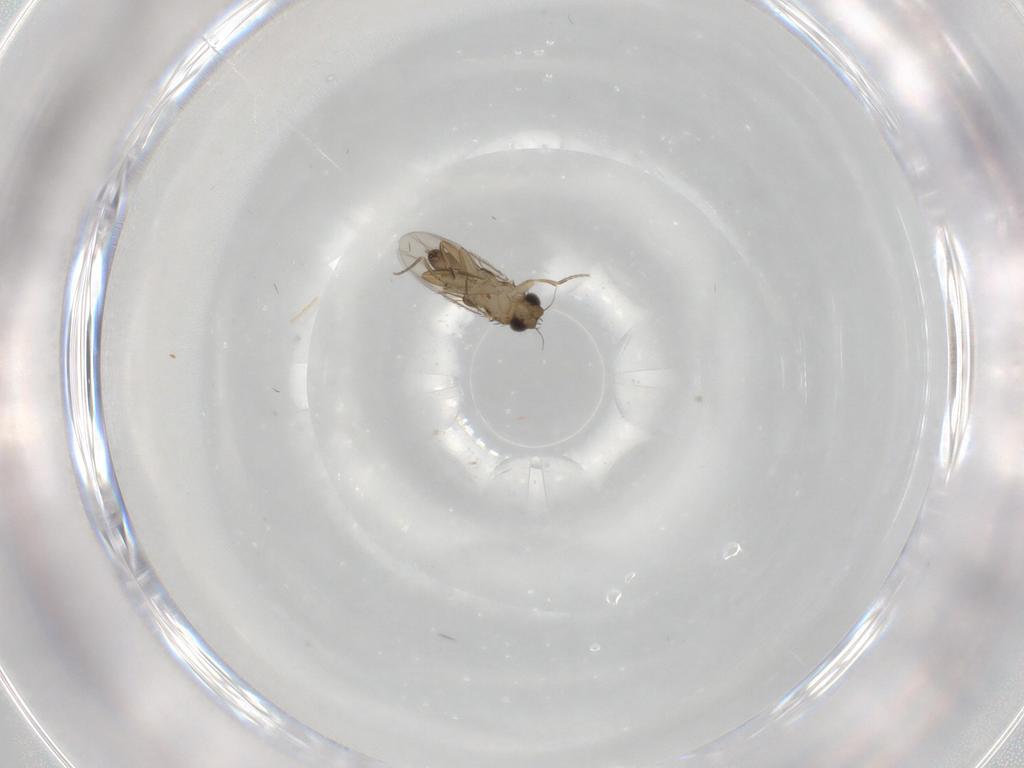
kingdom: Animalia
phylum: Arthropoda
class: Insecta
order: Diptera
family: Phoridae
